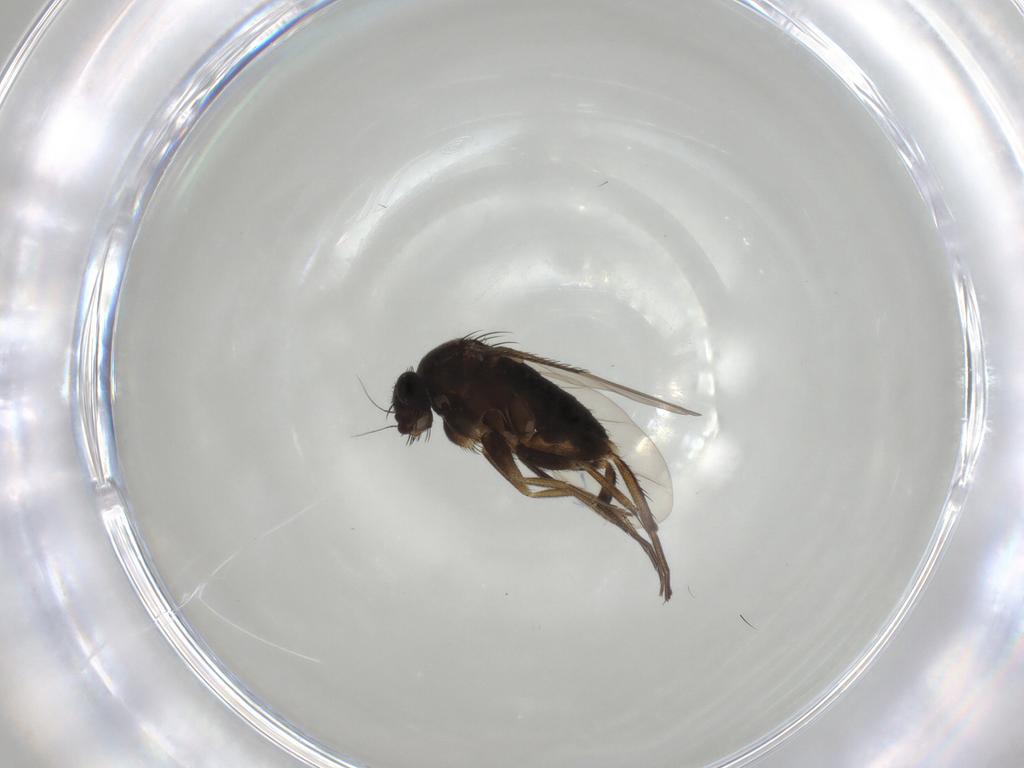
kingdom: Animalia
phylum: Arthropoda
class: Insecta
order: Diptera
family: Phoridae
